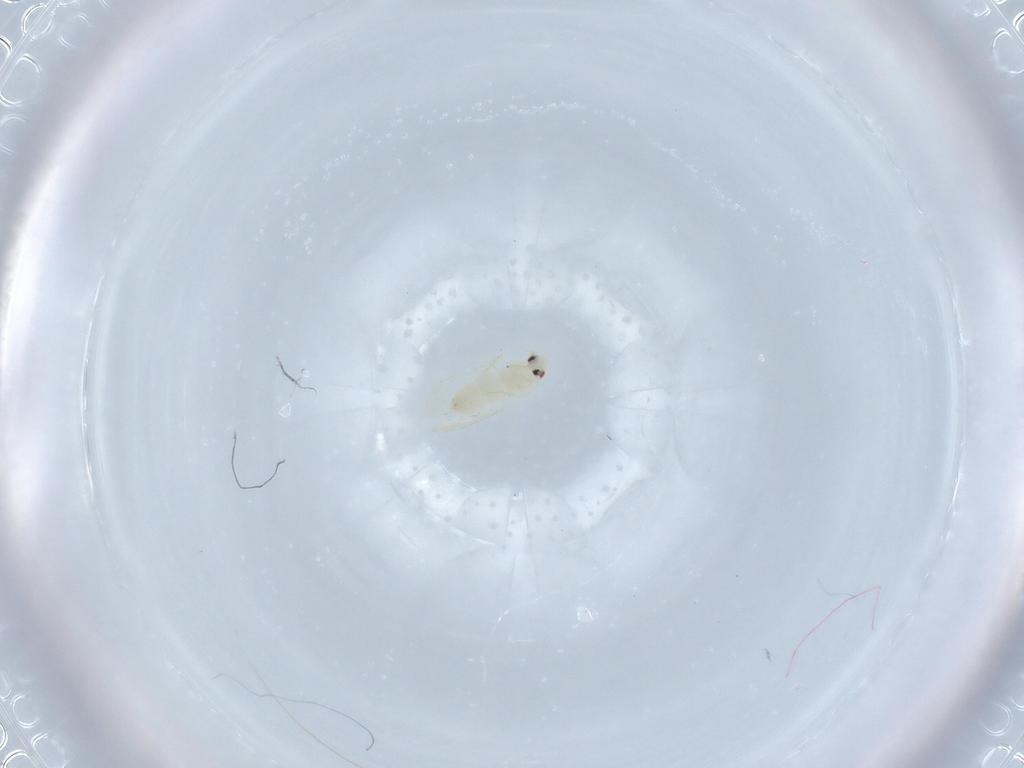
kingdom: Animalia
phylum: Arthropoda
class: Insecta
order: Hemiptera
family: Aleyrodidae
